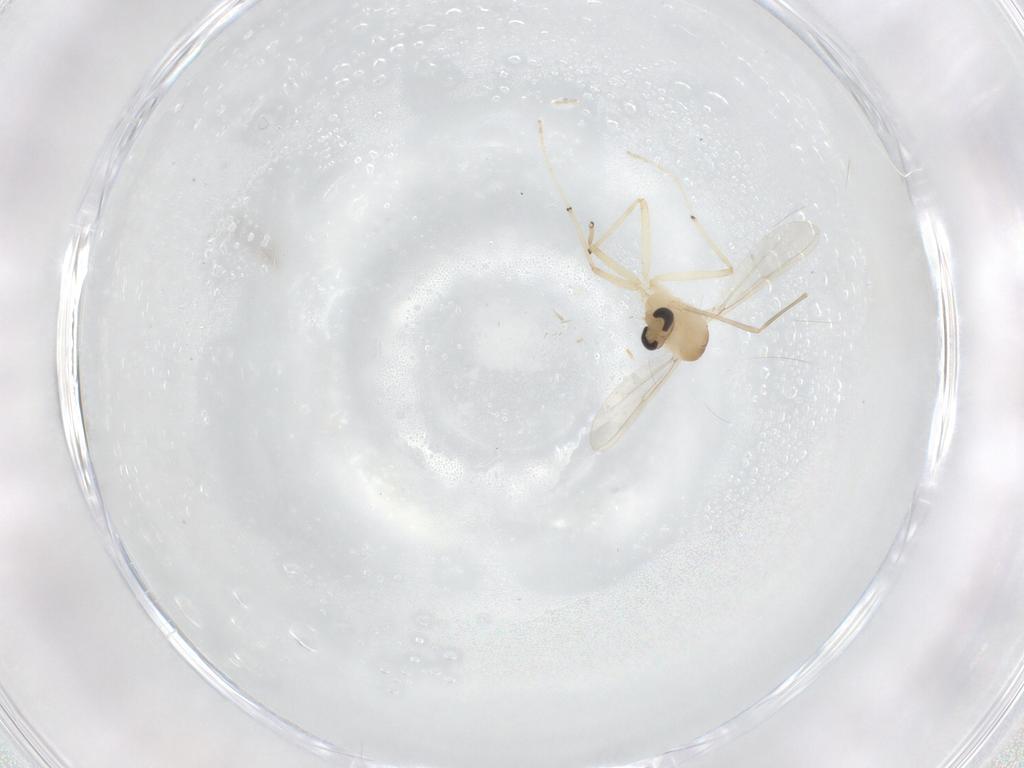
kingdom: Animalia
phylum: Arthropoda
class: Insecta
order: Diptera
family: Chironomidae
